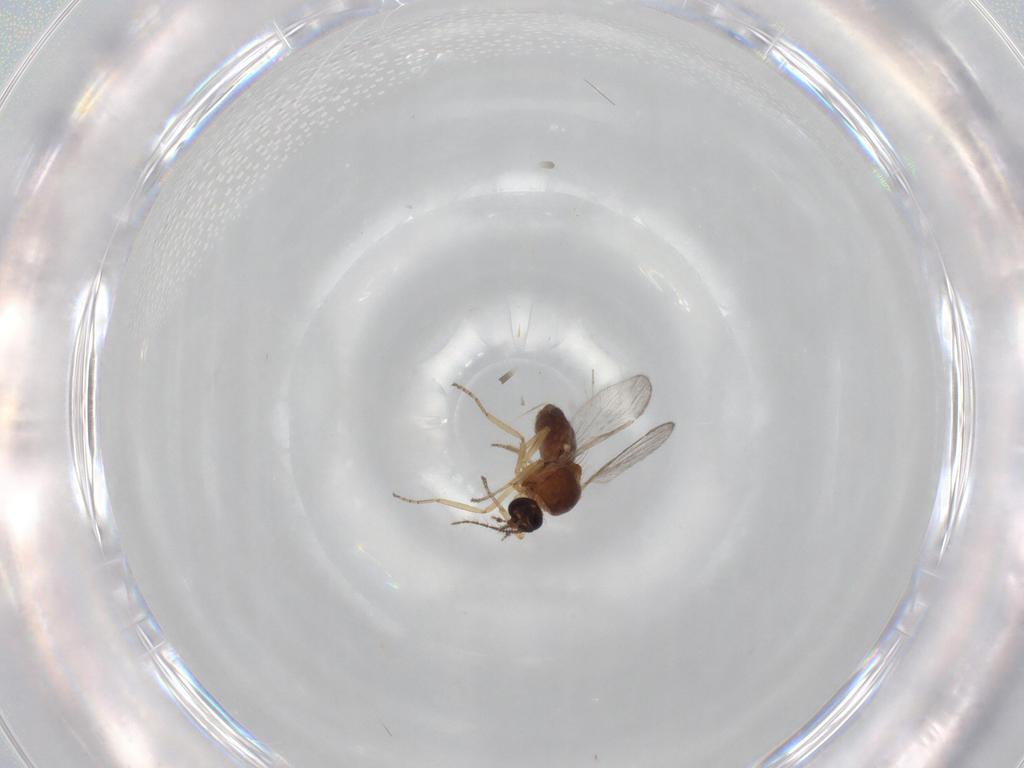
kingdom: Animalia
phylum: Arthropoda
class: Insecta
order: Diptera
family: Ceratopogonidae
